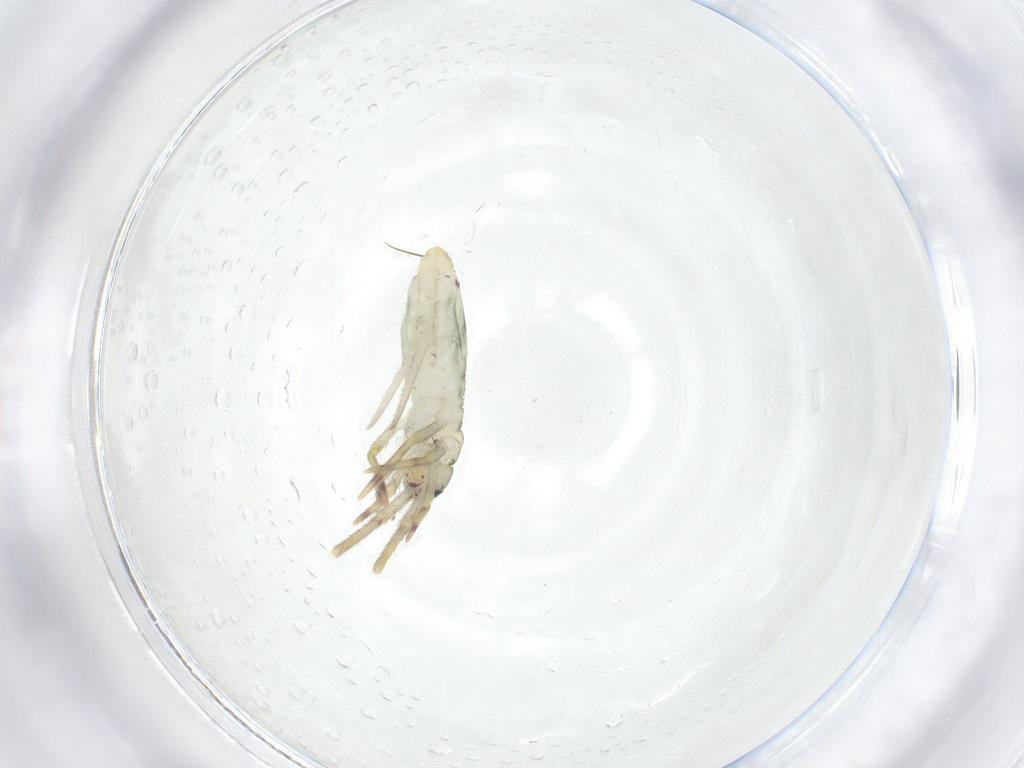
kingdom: Animalia
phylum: Arthropoda
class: Collembola
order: Entomobryomorpha
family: Entomobryidae
